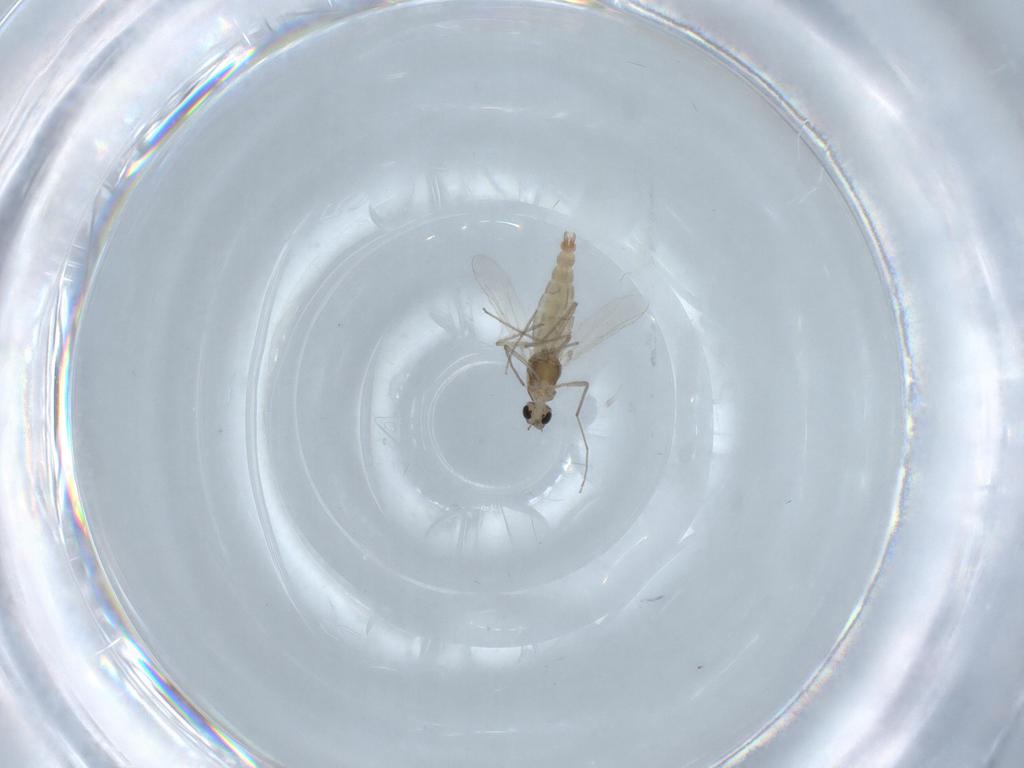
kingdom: Animalia
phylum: Arthropoda
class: Insecta
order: Diptera
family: Chironomidae
